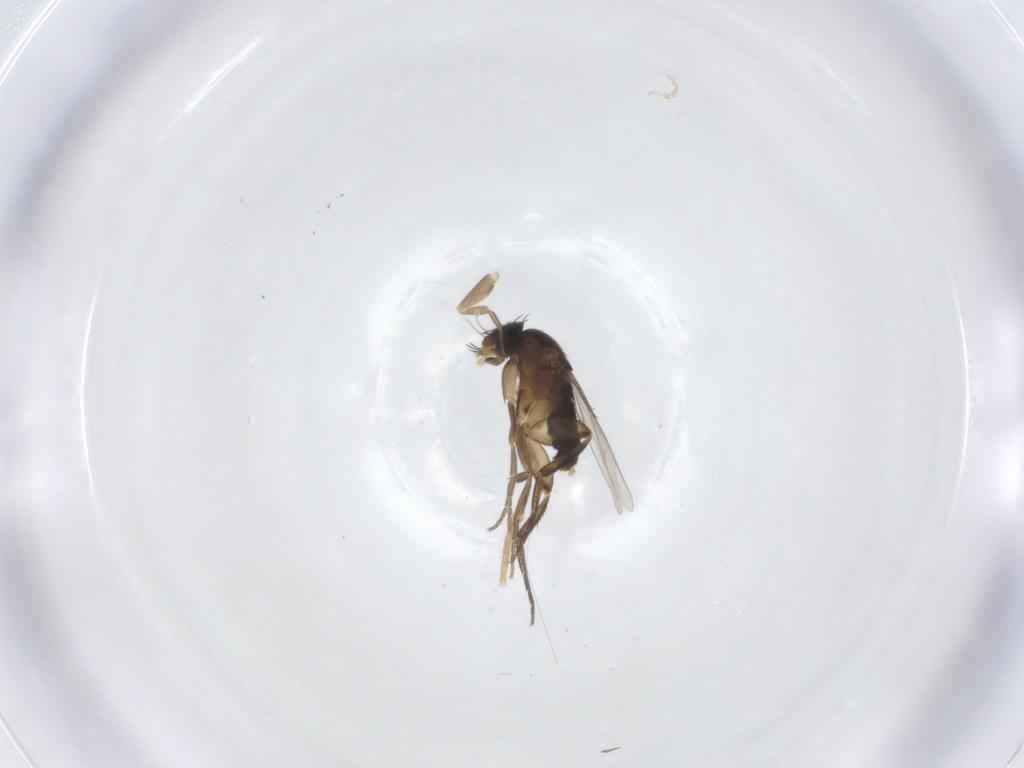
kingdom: Animalia
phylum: Arthropoda
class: Insecta
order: Diptera
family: Phoridae
